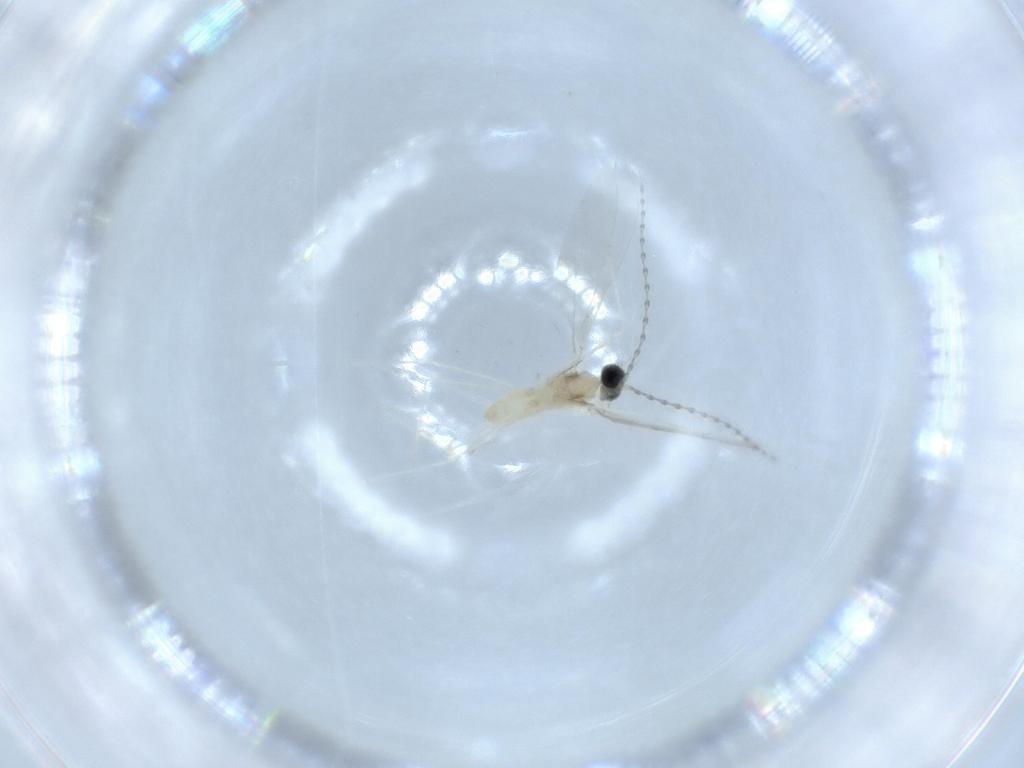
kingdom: Animalia
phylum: Arthropoda
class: Insecta
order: Diptera
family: Cecidomyiidae
